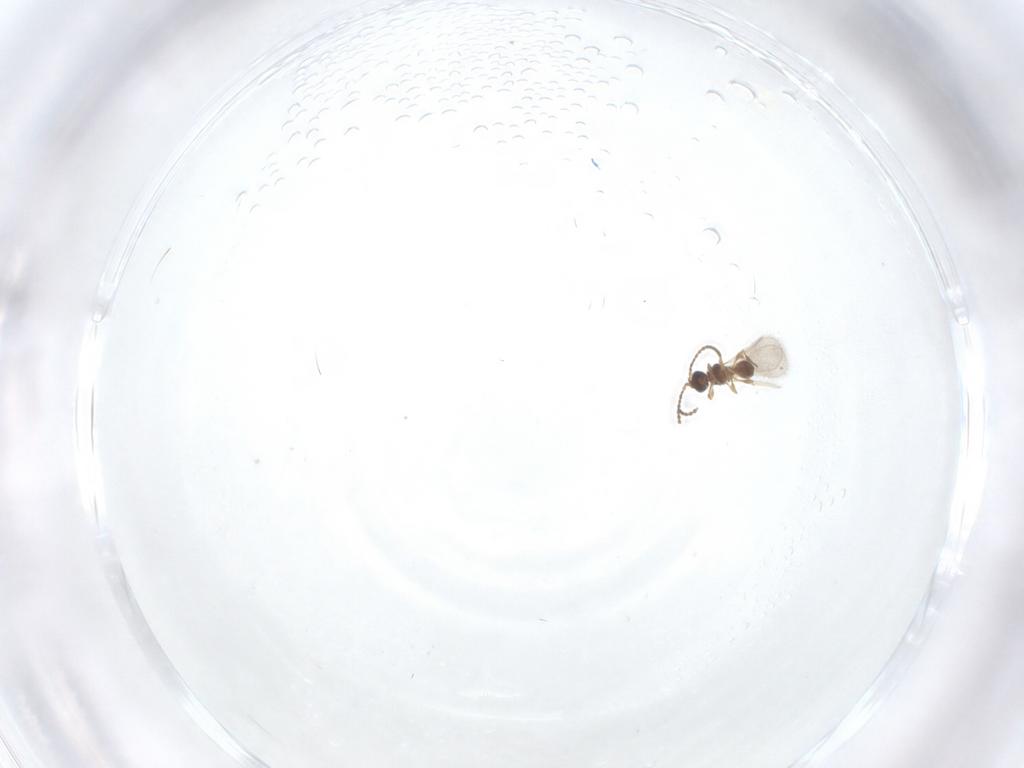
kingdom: Animalia
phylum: Arthropoda
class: Insecta
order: Hymenoptera
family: Diapriidae
